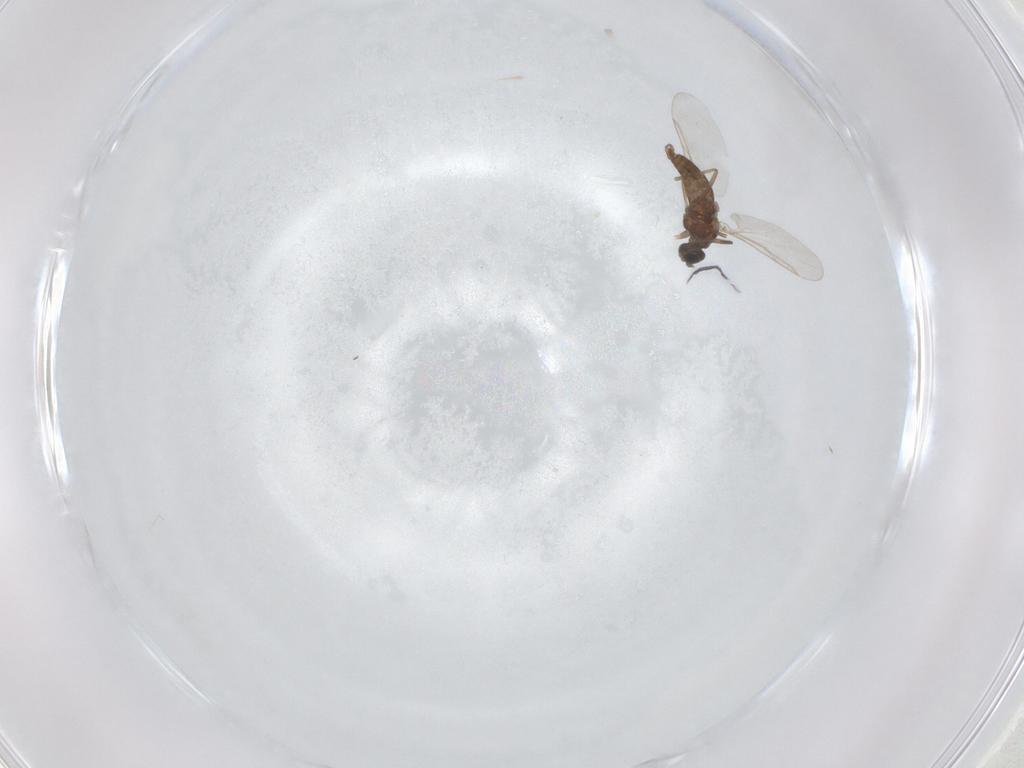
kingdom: Animalia
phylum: Arthropoda
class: Insecta
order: Diptera
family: Cecidomyiidae
